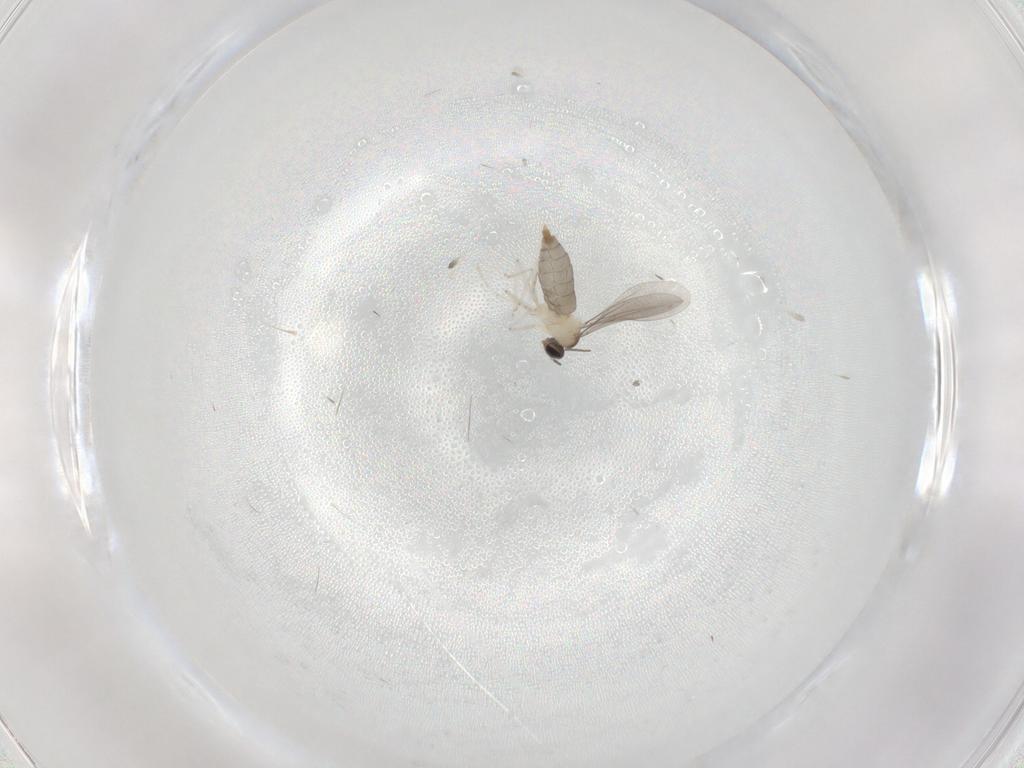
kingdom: Animalia
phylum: Arthropoda
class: Insecta
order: Diptera
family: Cecidomyiidae
